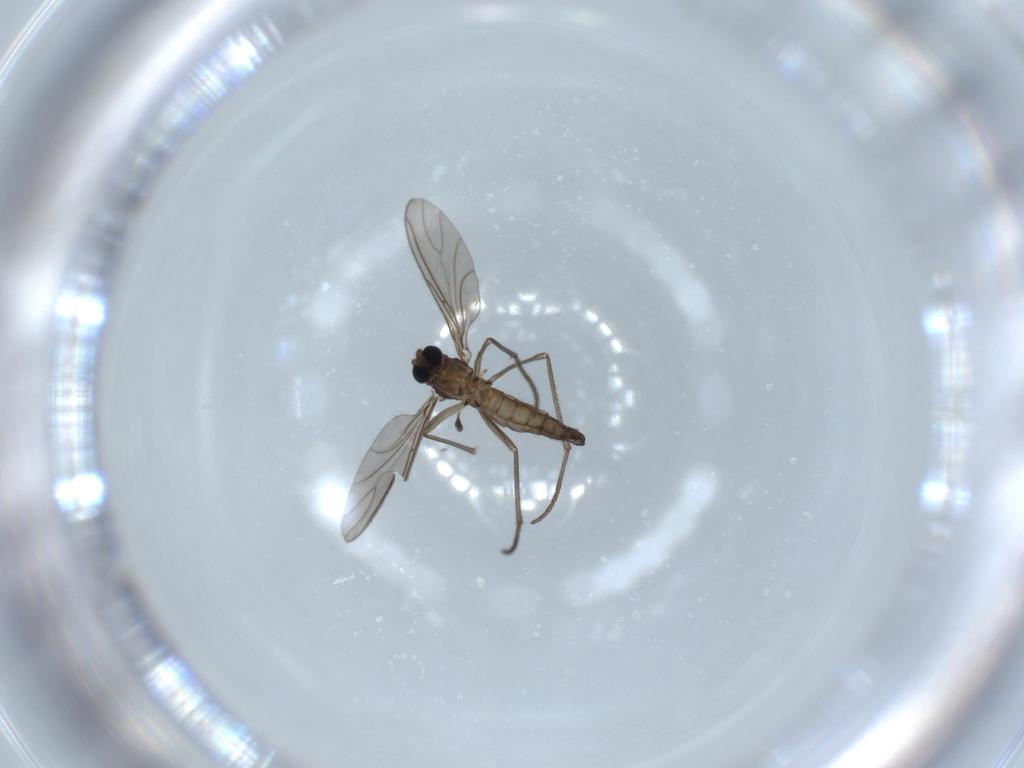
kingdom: Animalia
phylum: Arthropoda
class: Insecta
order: Diptera
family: Sciaridae
